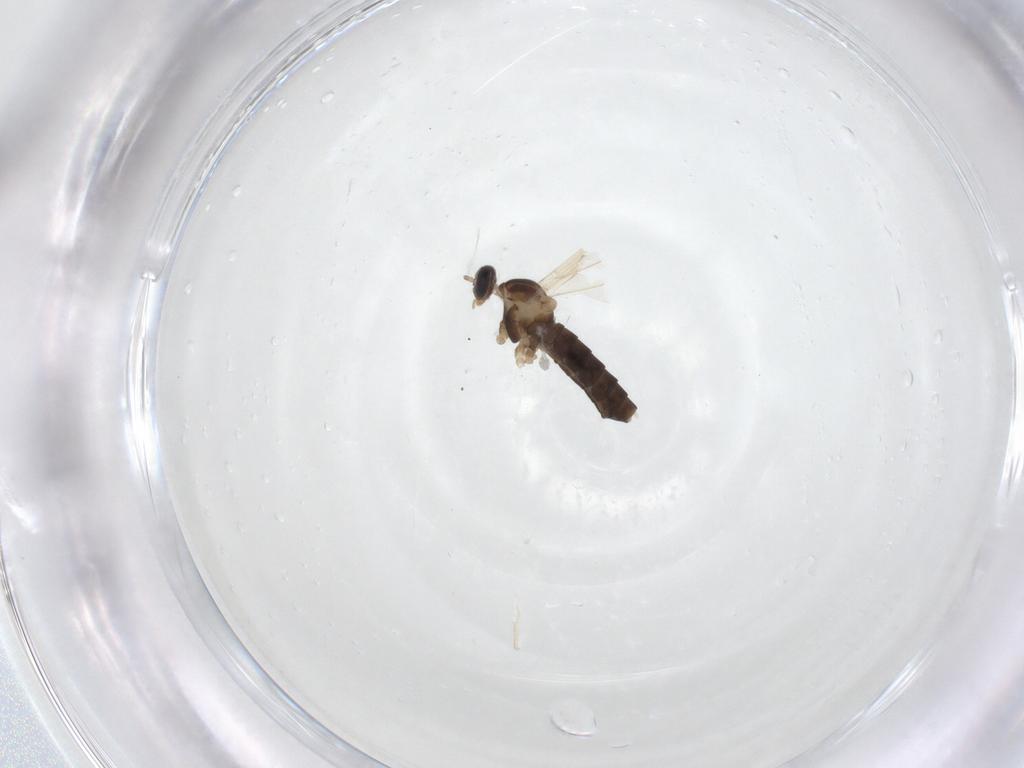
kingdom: Animalia
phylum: Arthropoda
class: Insecta
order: Diptera
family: Cecidomyiidae
